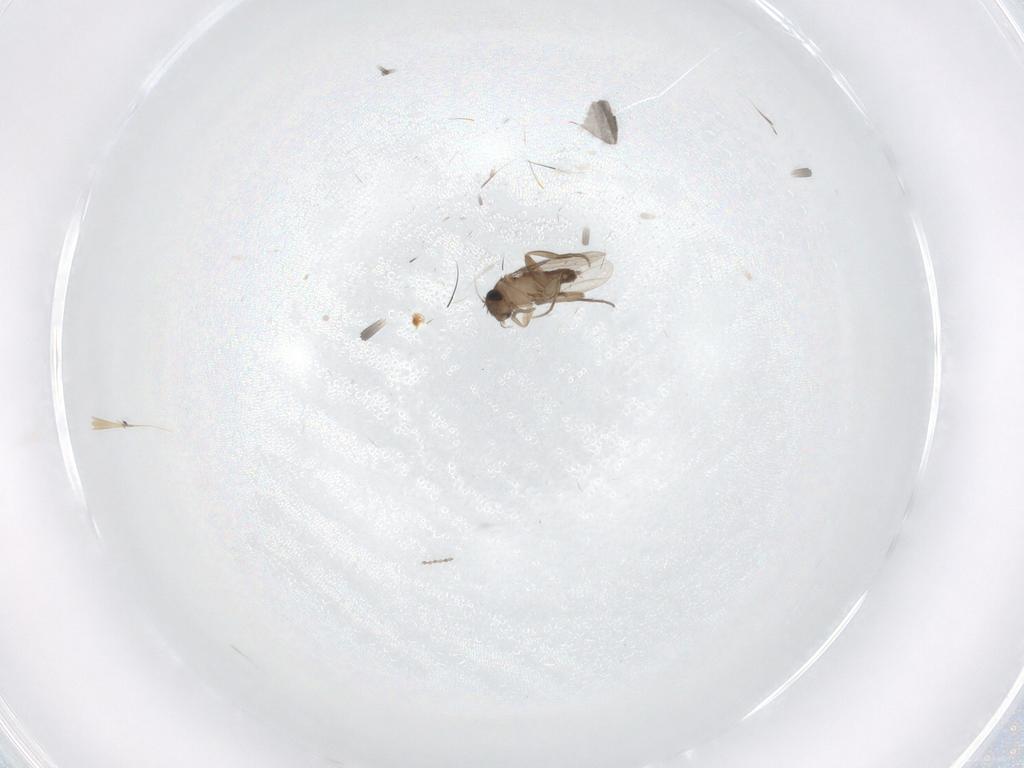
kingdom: Animalia
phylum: Arthropoda
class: Insecta
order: Diptera
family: Phoridae
